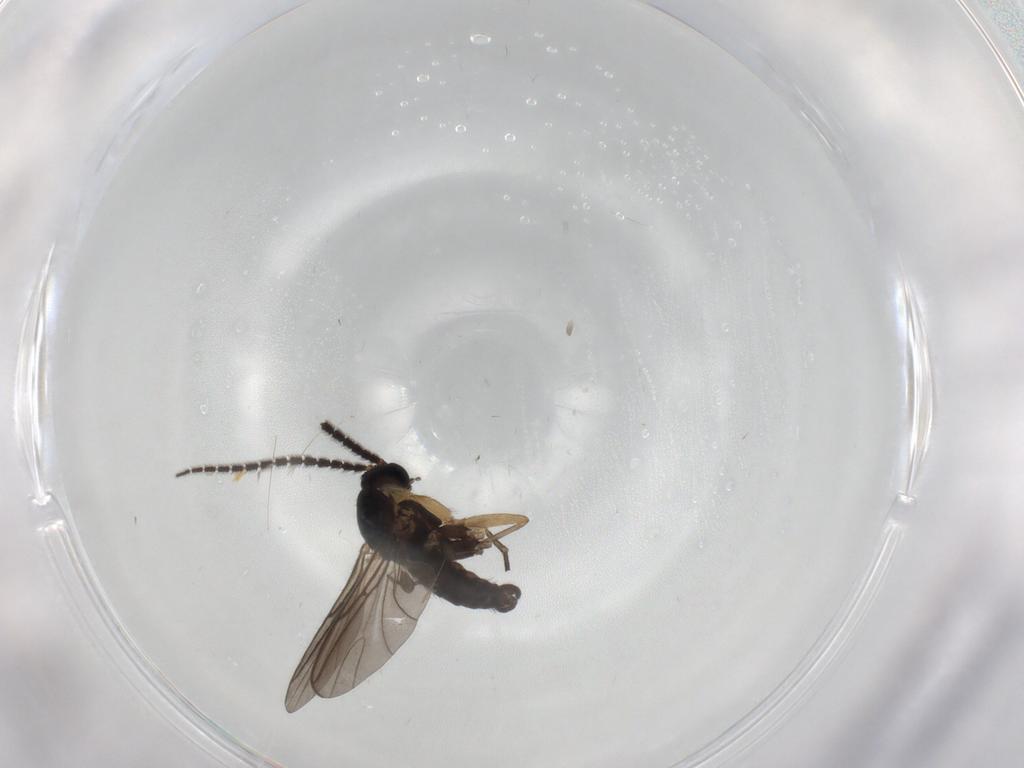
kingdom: Animalia
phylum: Arthropoda
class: Insecta
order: Diptera
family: Sciaridae
